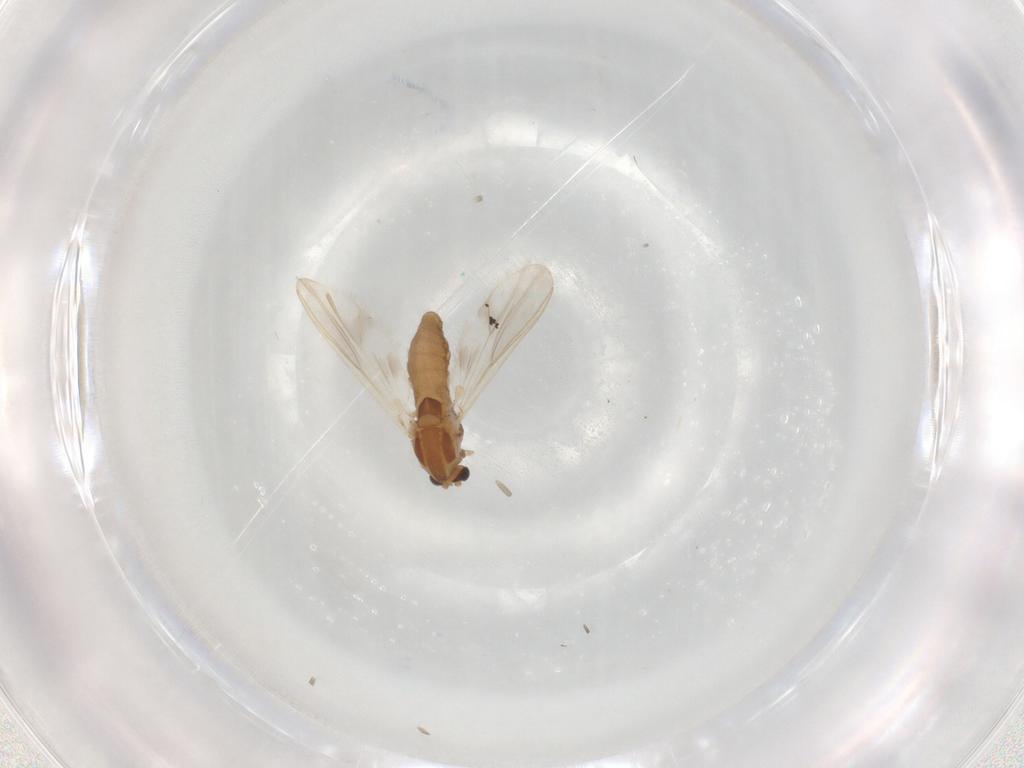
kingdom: Animalia
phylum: Arthropoda
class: Insecta
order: Diptera
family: Chironomidae
